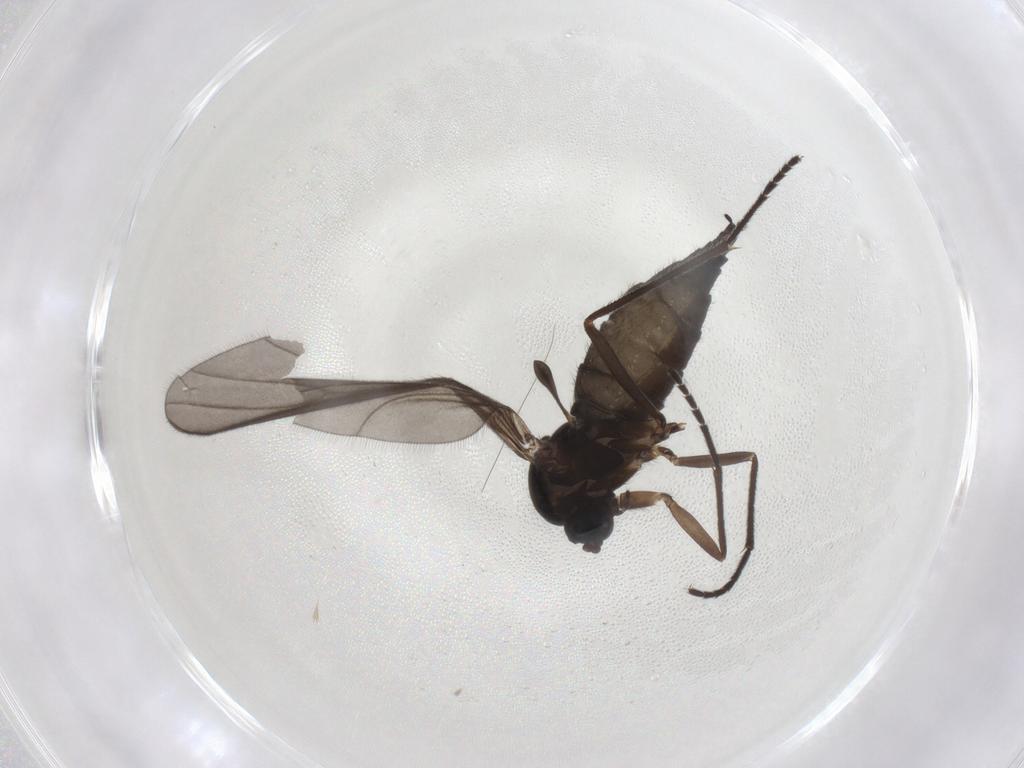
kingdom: Animalia
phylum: Arthropoda
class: Insecta
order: Diptera
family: Sciaridae
